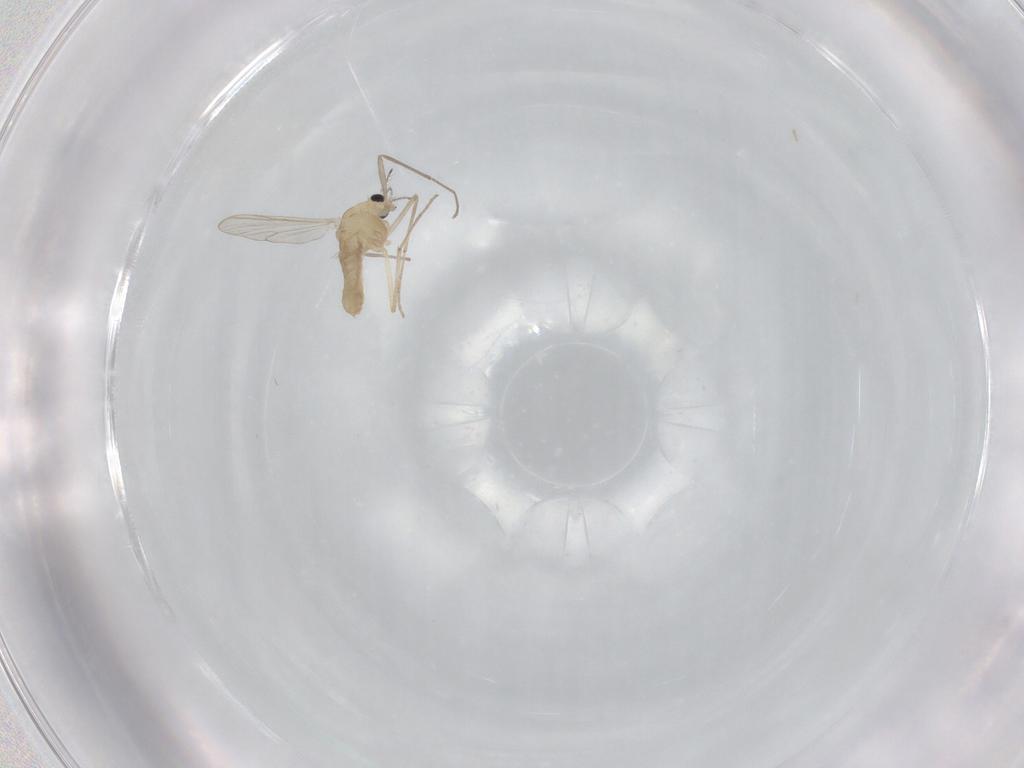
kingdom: Animalia
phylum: Arthropoda
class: Insecta
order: Diptera
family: Chironomidae
